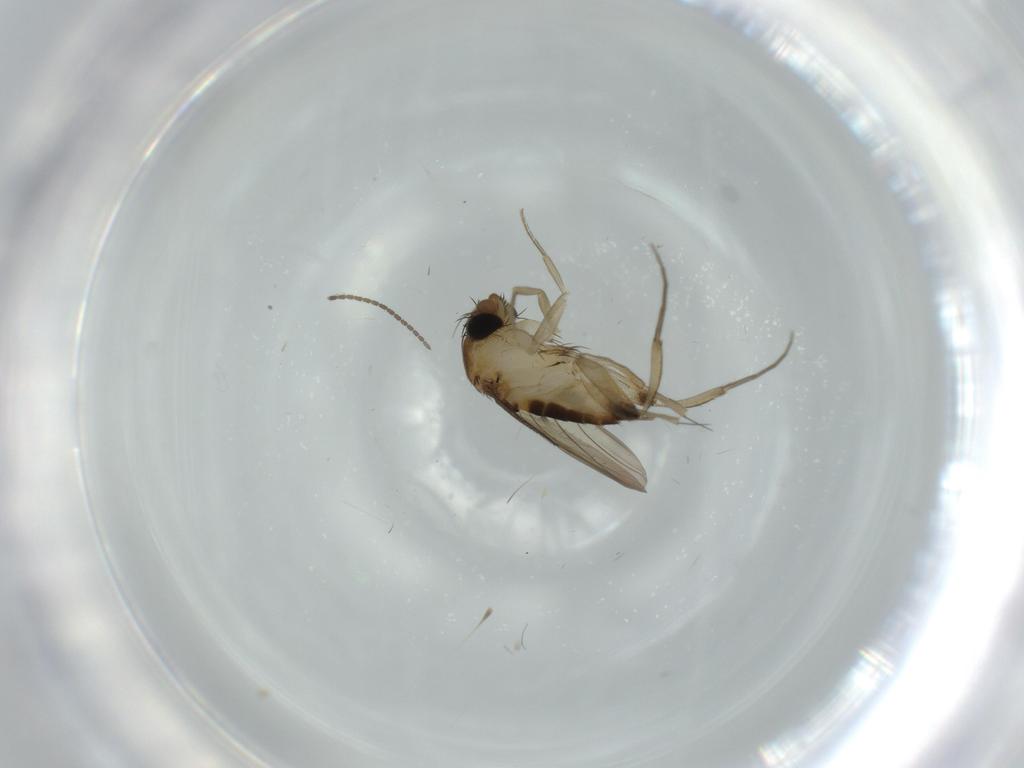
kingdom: Animalia
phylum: Arthropoda
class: Insecta
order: Diptera
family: Phoridae
